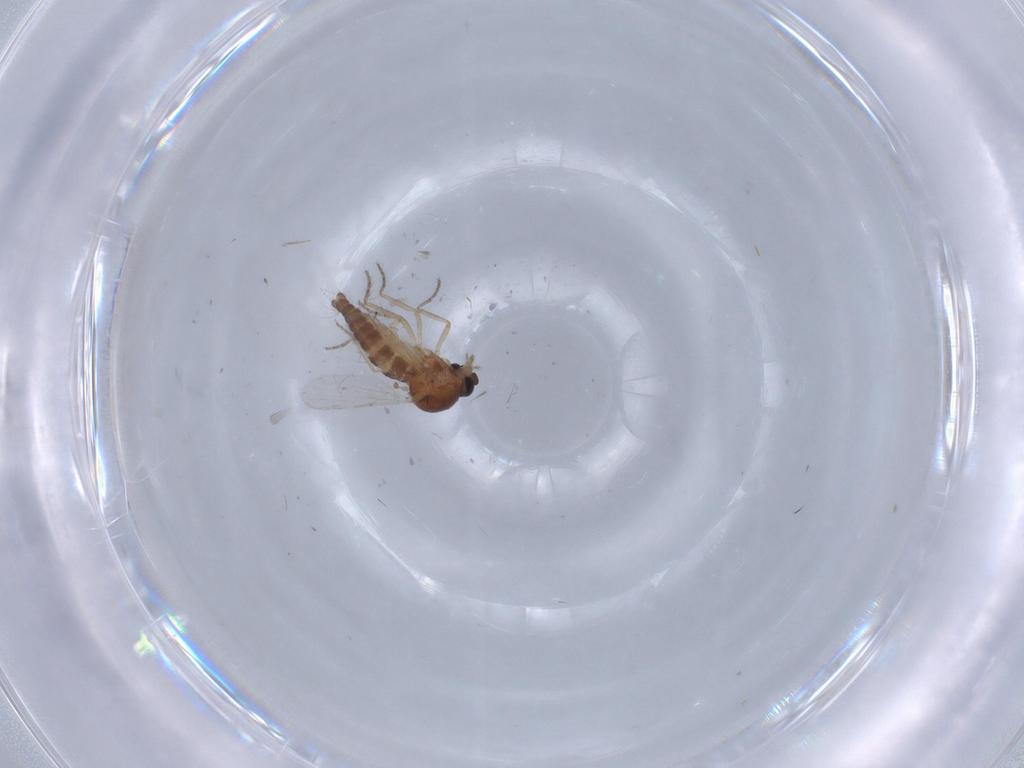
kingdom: Animalia
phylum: Arthropoda
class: Insecta
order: Diptera
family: Ceratopogonidae
